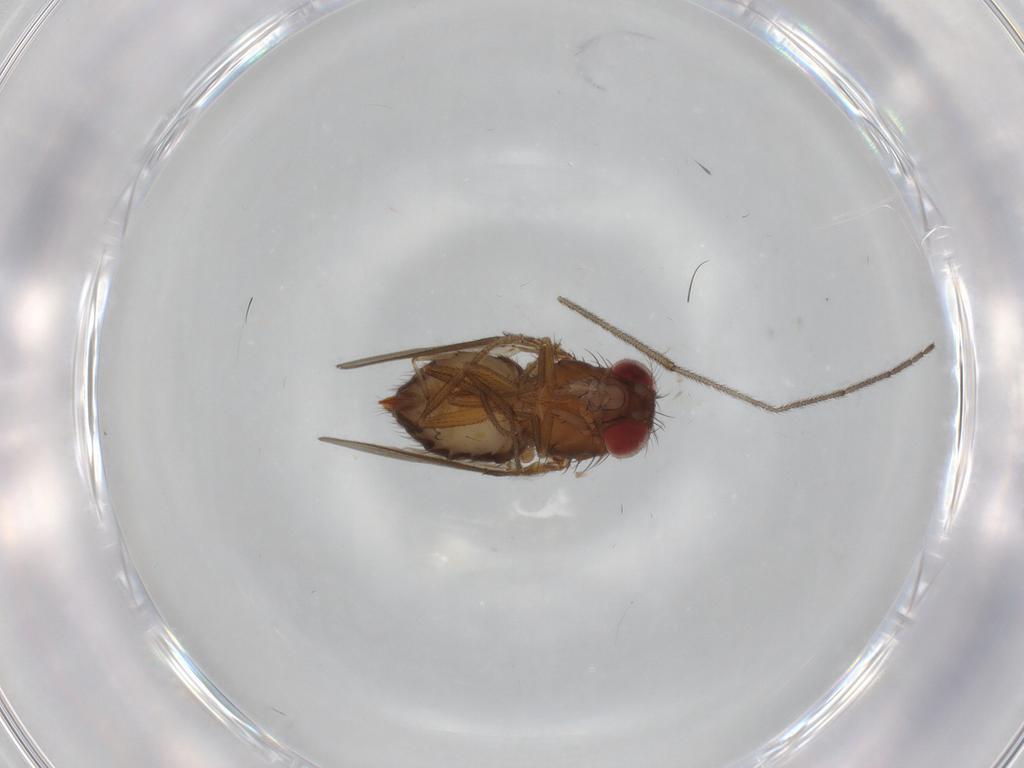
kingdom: Animalia
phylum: Arthropoda
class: Insecta
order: Diptera
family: Drosophilidae
